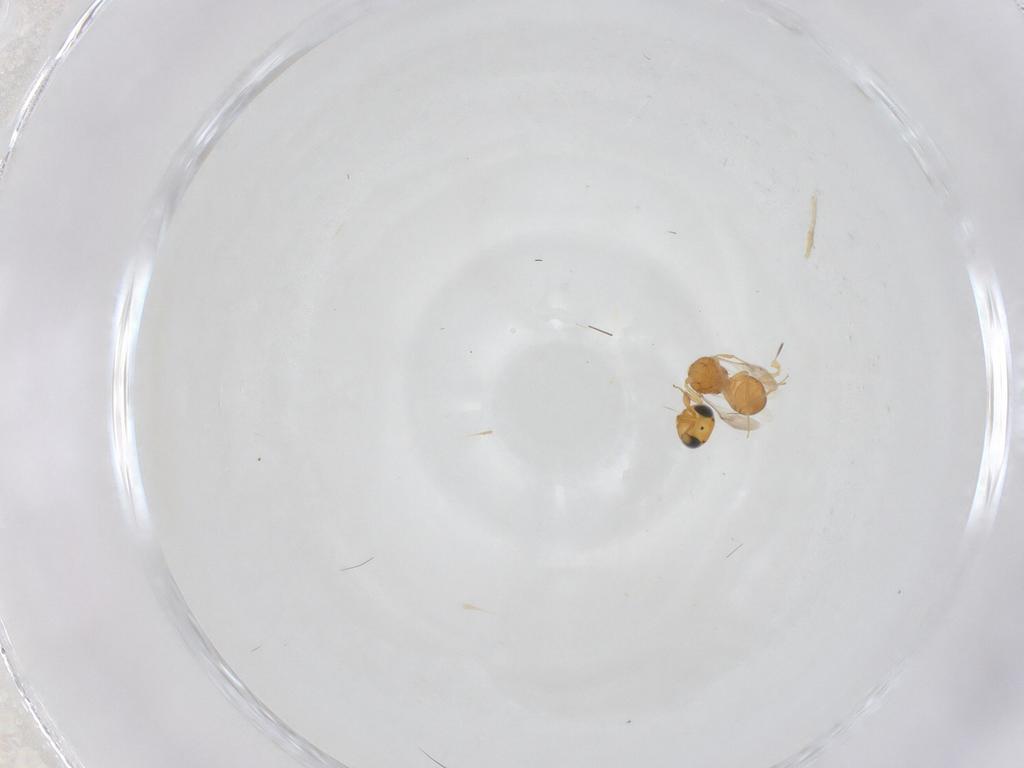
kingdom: Animalia
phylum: Arthropoda
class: Insecta
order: Hymenoptera
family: Scelionidae
